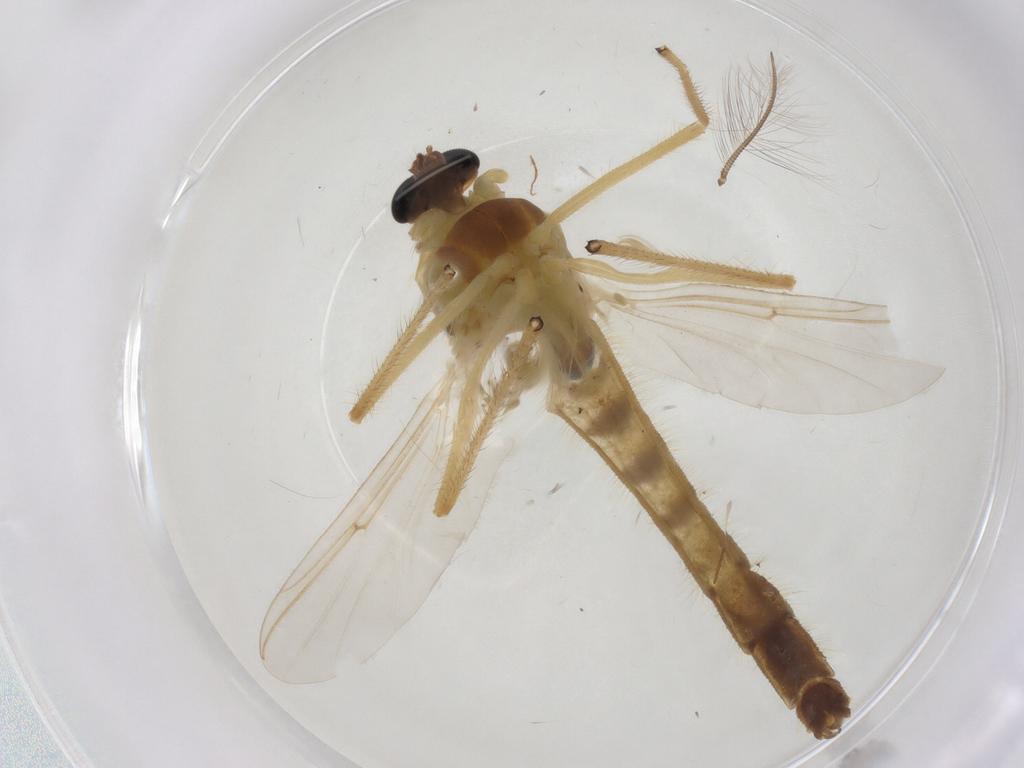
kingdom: Animalia
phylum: Arthropoda
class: Insecta
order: Diptera
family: Chironomidae
